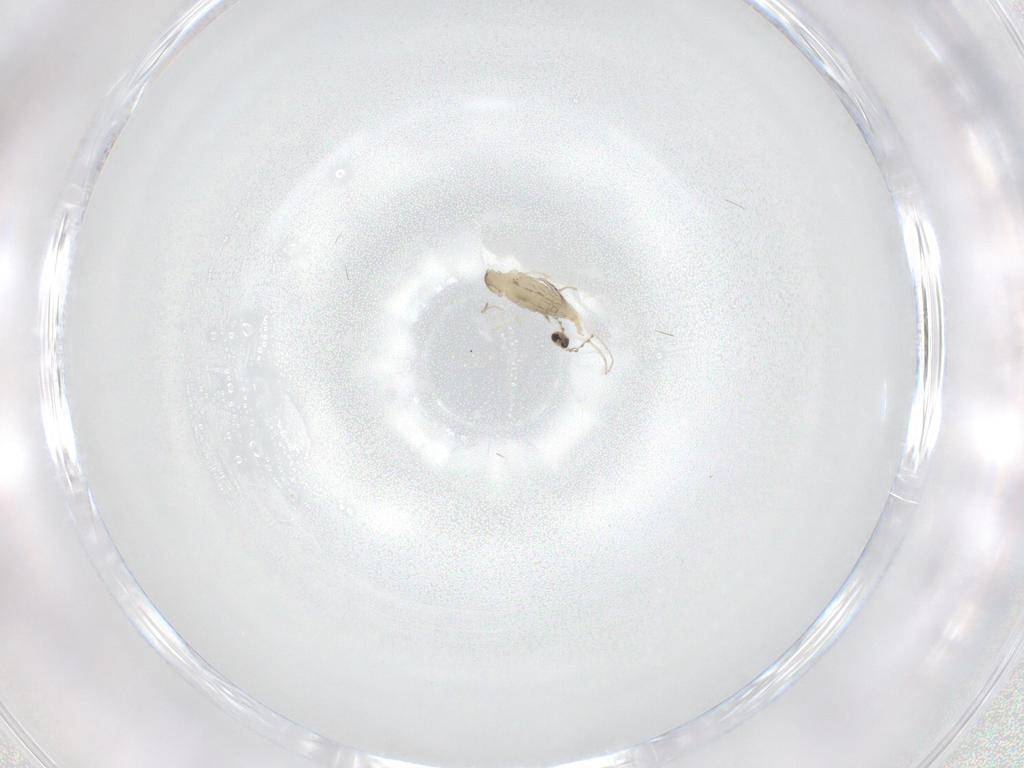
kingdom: Animalia
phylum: Arthropoda
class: Insecta
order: Diptera
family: Cecidomyiidae
